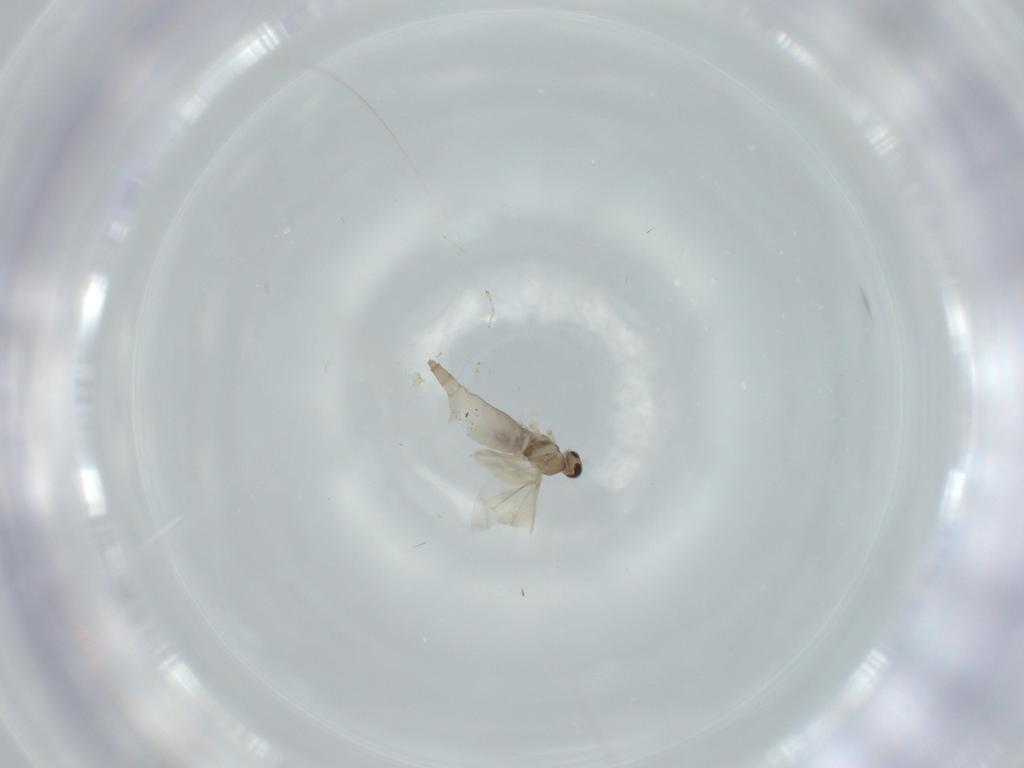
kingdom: Animalia
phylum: Arthropoda
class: Insecta
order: Diptera
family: Cecidomyiidae
